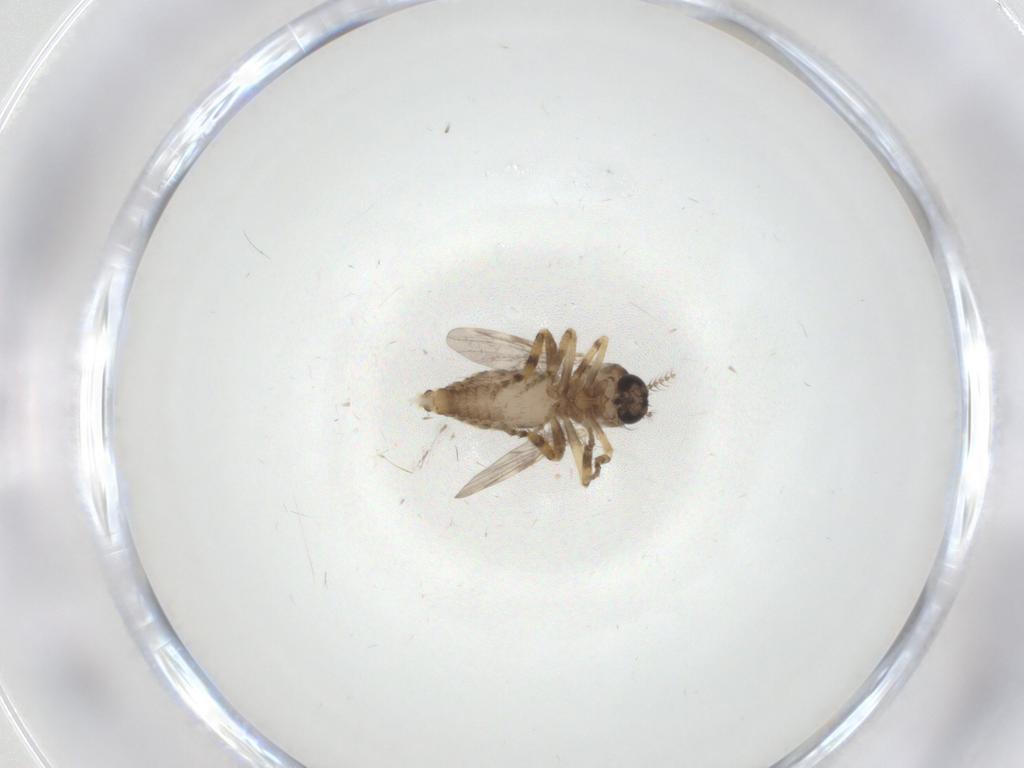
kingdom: Animalia
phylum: Arthropoda
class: Insecta
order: Diptera
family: Ceratopogonidae
